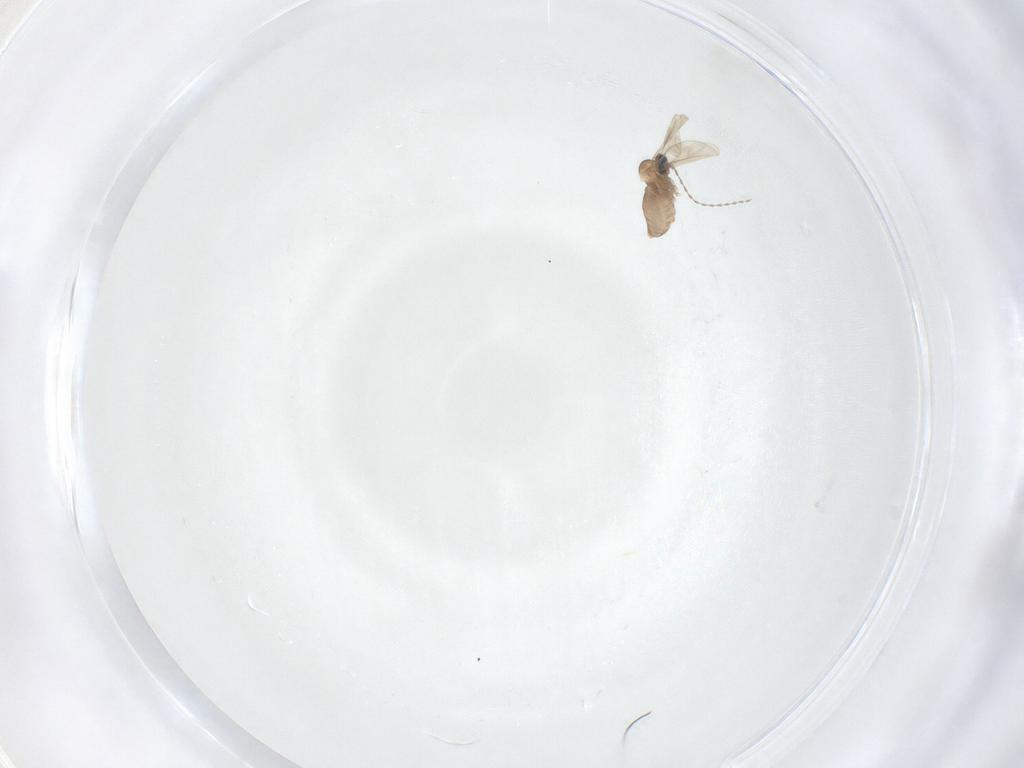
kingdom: Animalia
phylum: Arthropoda
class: Insecta
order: Diptera
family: Cecidomyiidae
